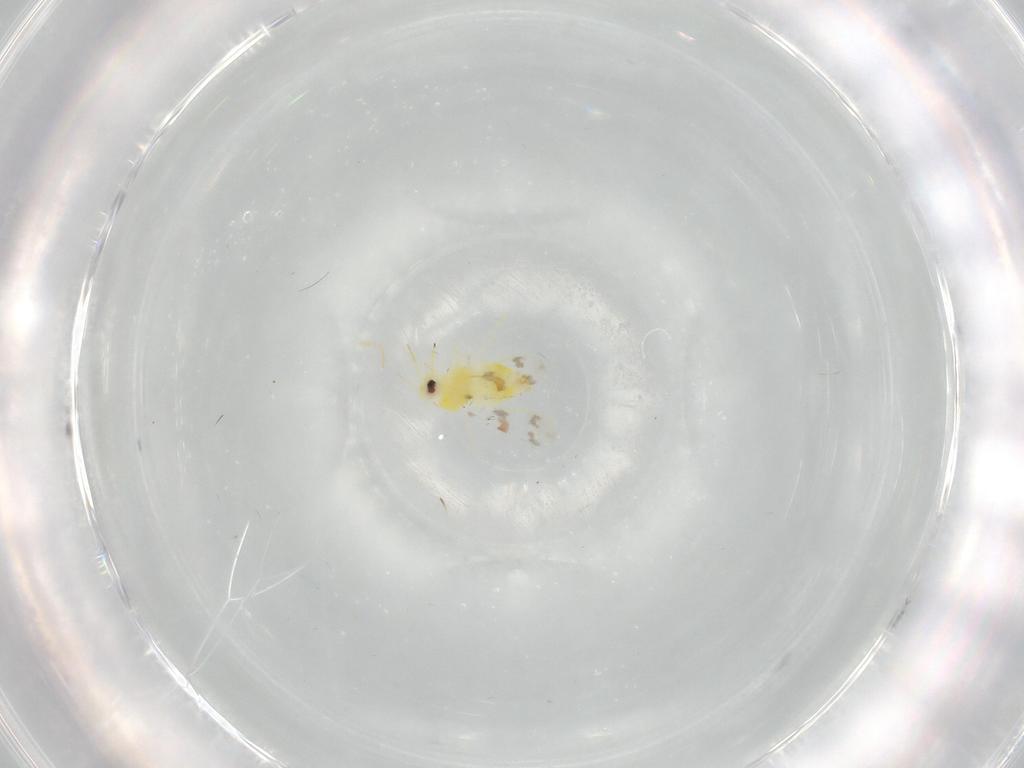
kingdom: Animalia
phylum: Arthropoda
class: Insecta
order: Hemiptera
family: Aleyrodidae
